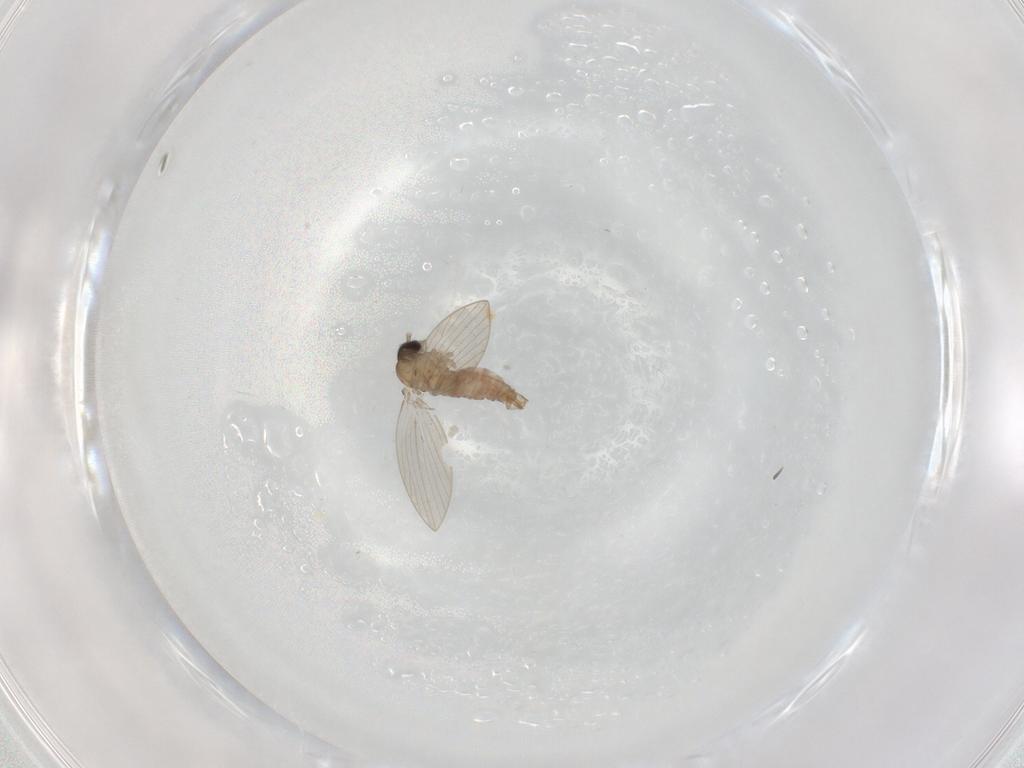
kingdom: Animalia
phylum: Arthropoda
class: Insecta
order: Diptera
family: Psychodidae
